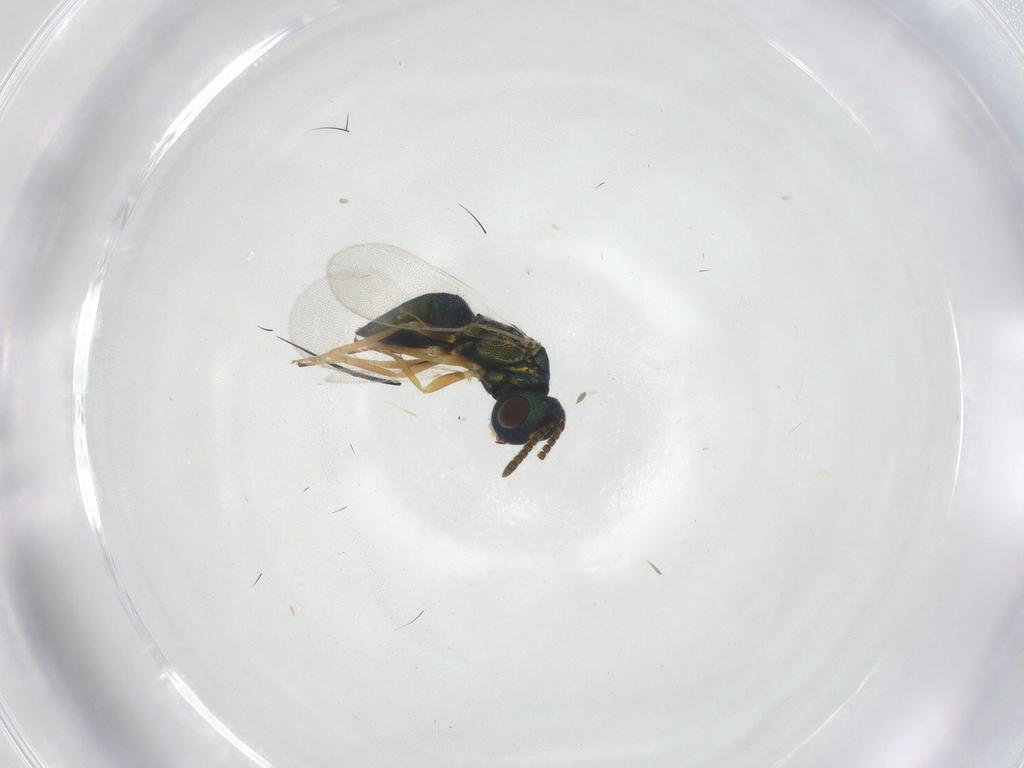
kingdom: Animalia
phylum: Arthropoda
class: Insecta
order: Hymenoptera
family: Pteromalidae
